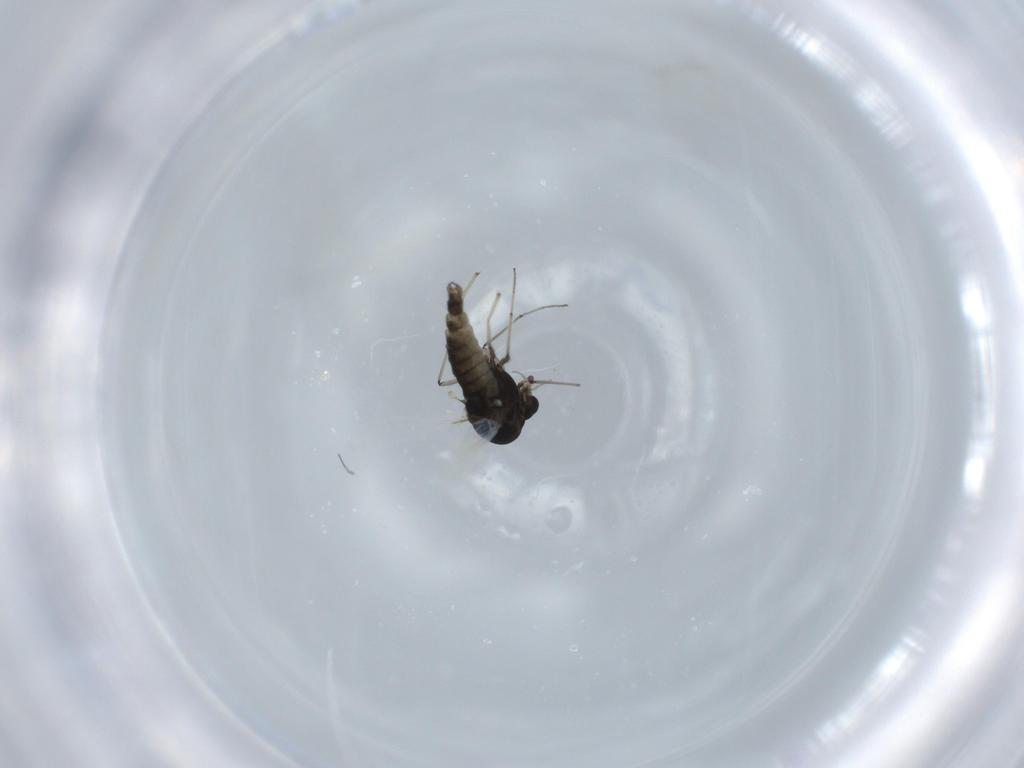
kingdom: Animalia
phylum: Arthropoda
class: Insecta
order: Diptera
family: Chironomidae
